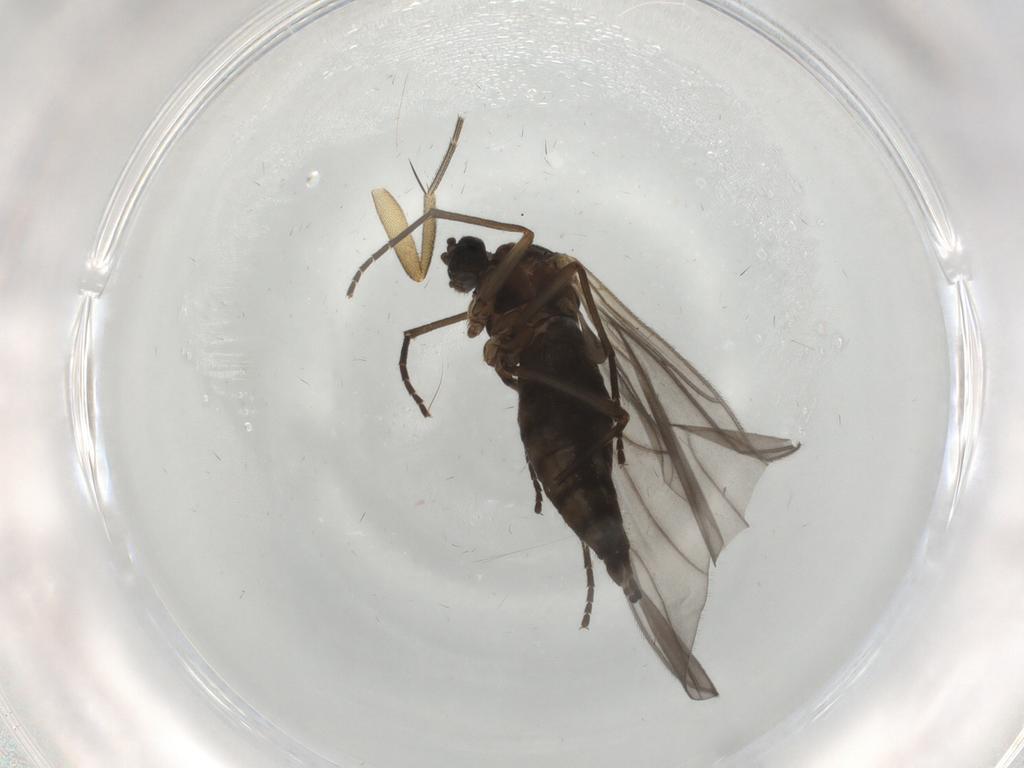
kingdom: Animalia
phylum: Arthropoda
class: Insecta
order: Diptera
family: Sciaridae
